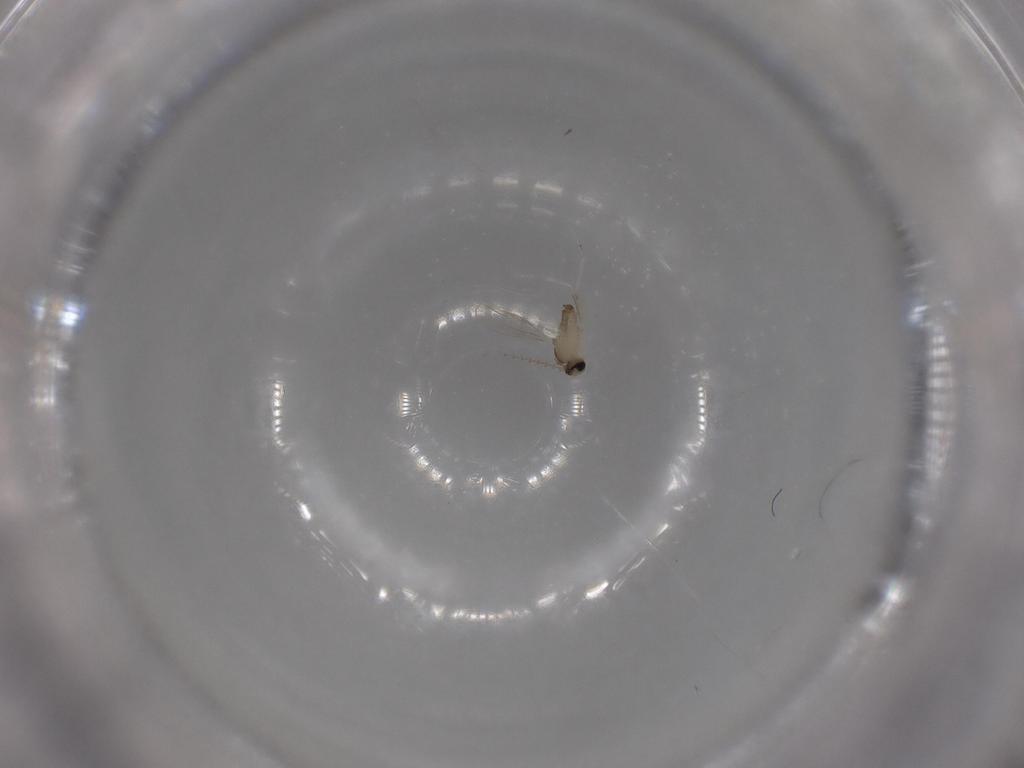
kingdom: Animalia
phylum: Arthropoda
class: Insecta
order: Diptera
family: Cecidomyiidae
